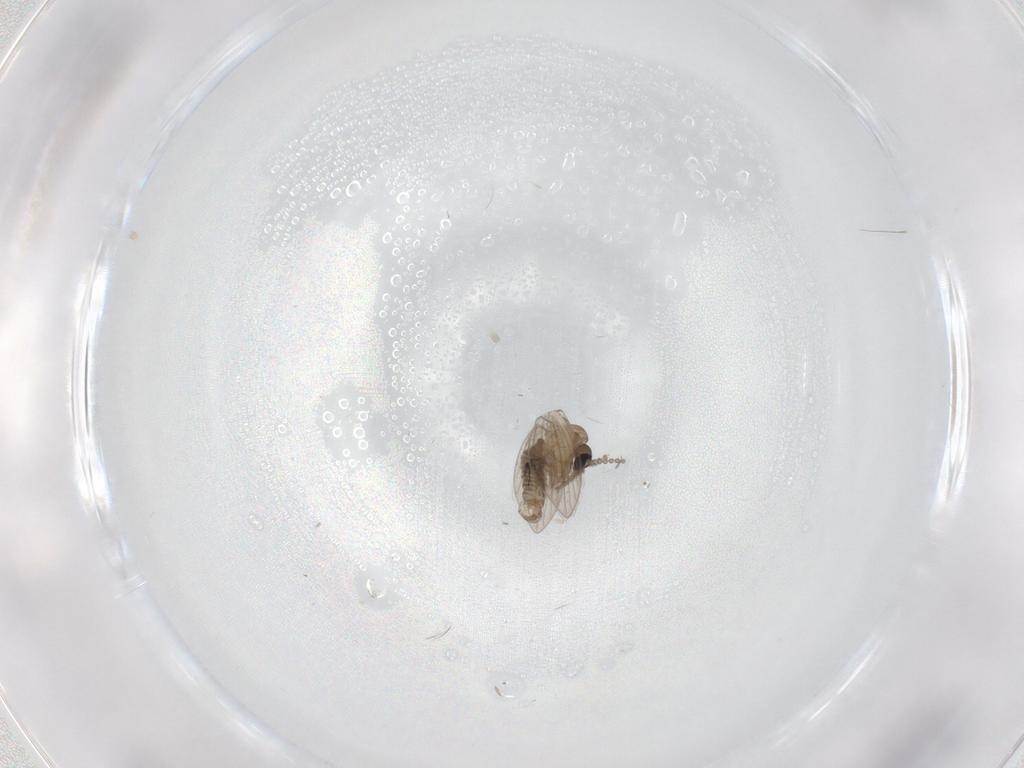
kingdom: Animalia
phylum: Arthropoda
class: Insecta
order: Diptera
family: Psychodidae
